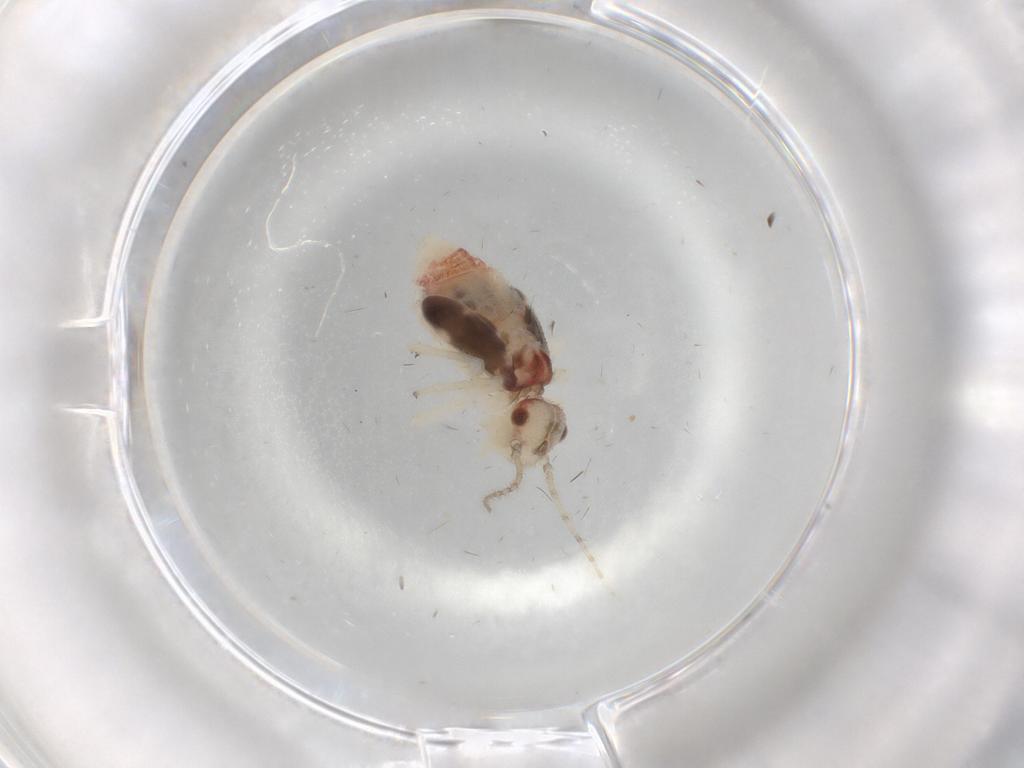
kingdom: Animalia
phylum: Arthropoda
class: Insecta
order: Psocodea
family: Amphipsocidae
